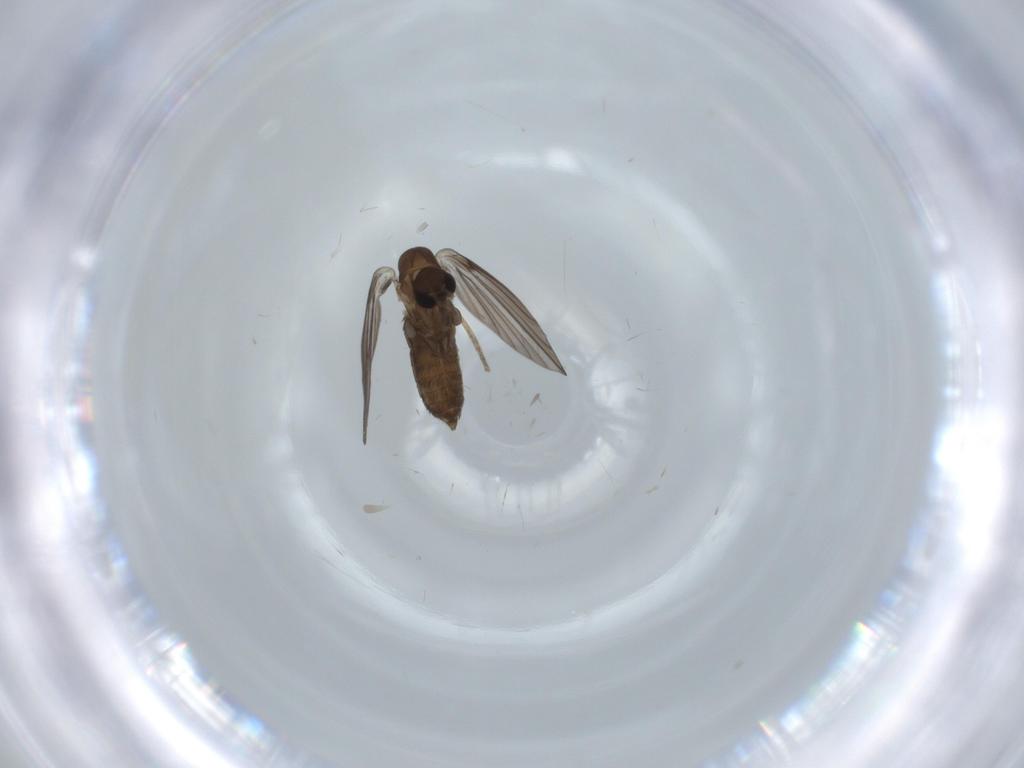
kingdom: Animalia
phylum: Arthropoda
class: Insecta
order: Diptera
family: Psychodidae
